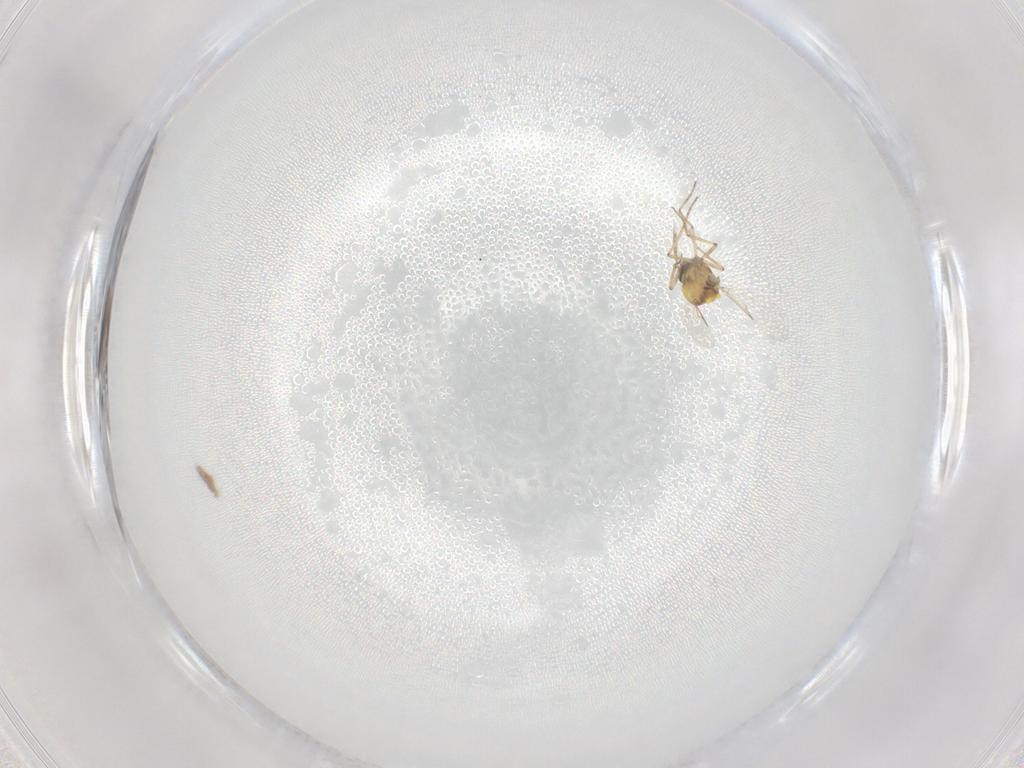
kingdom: Animalia
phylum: Arthropoda
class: Insecta
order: Diptera
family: Ceratopogonidae
